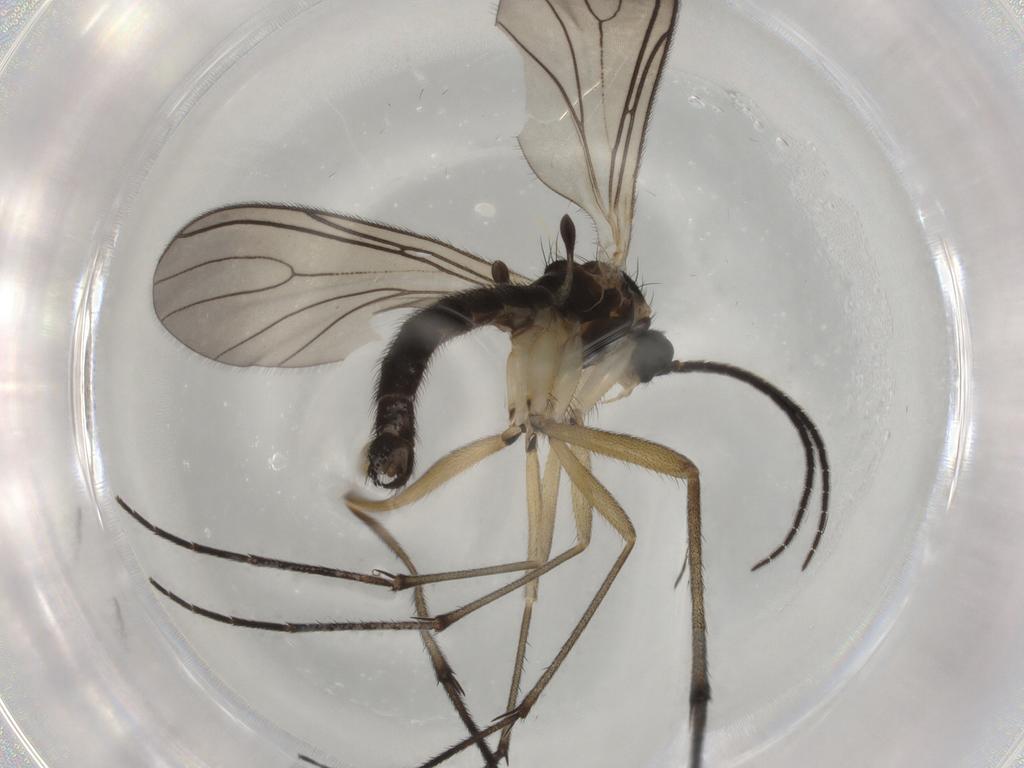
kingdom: Animalia
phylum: Arthropoda
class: Insecta
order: Diptera
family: Sciaridae
